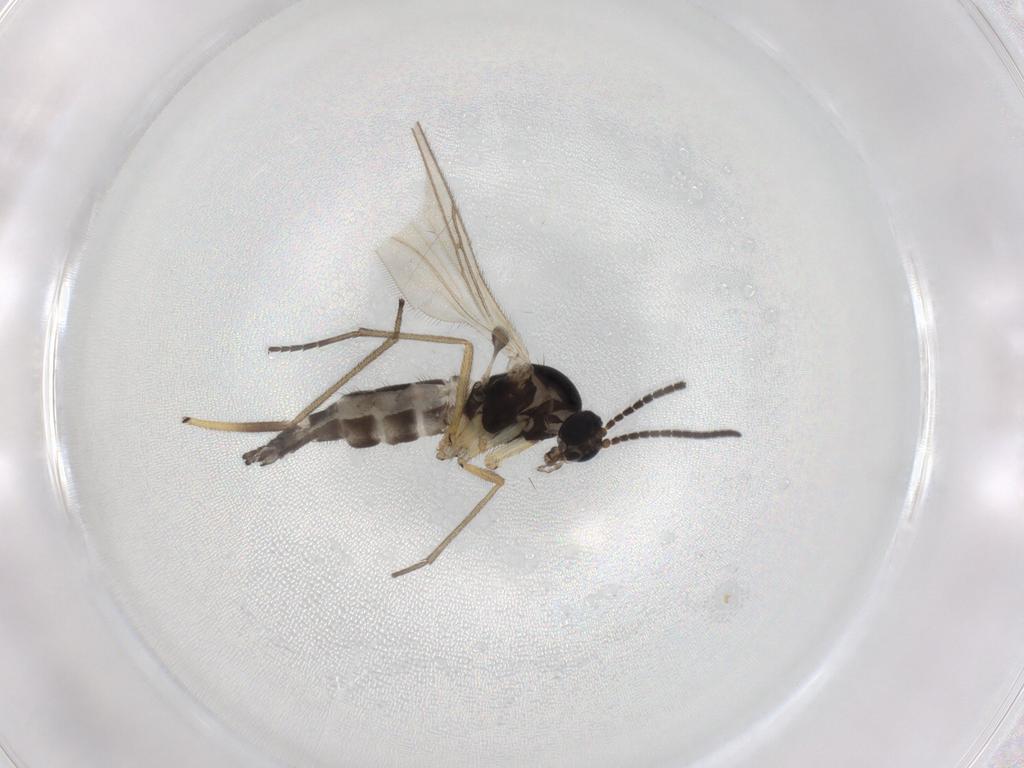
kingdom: Animalia
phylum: Arthropoda
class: Insecta
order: Diptera
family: Sciaridae
